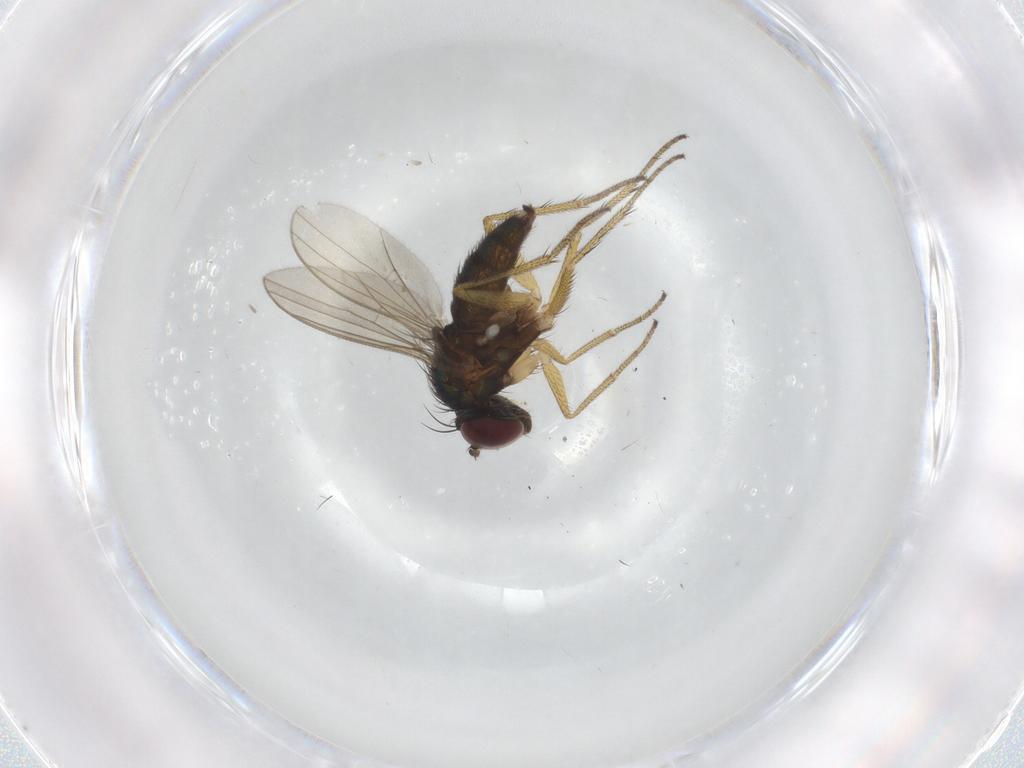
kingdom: Animalia
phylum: Arthropoda
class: Insecta
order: Diptera
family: Dolichopodidae
